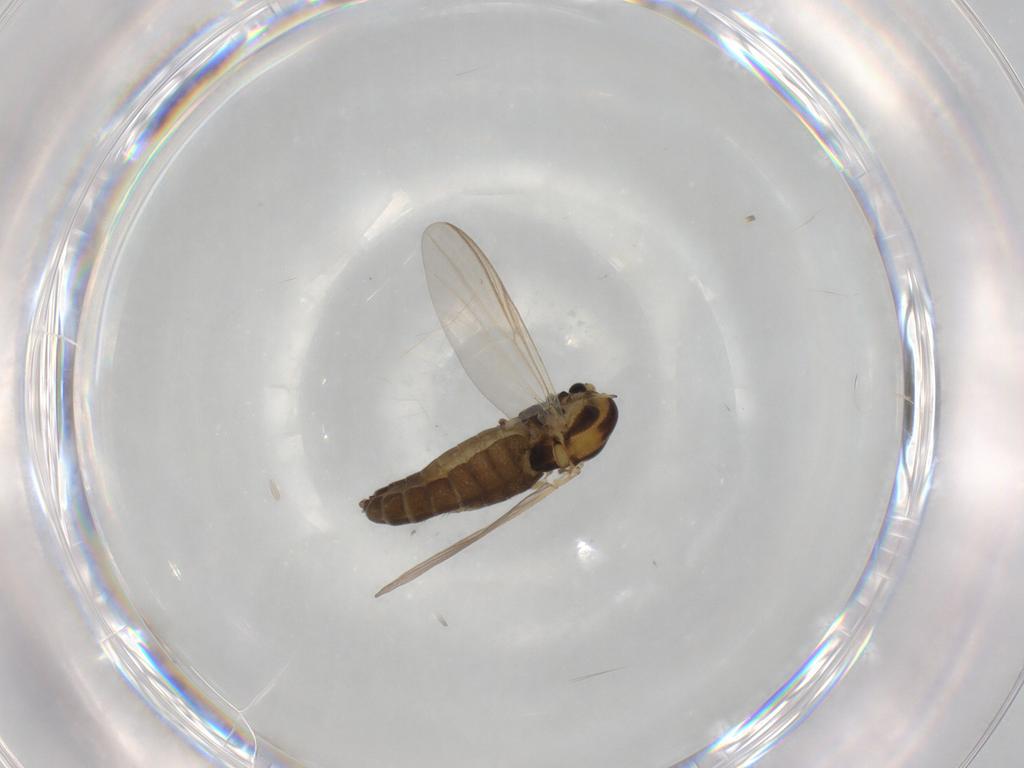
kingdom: Animalia
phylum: Arthropoda
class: Insecta
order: Diptera
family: Chironomidae
